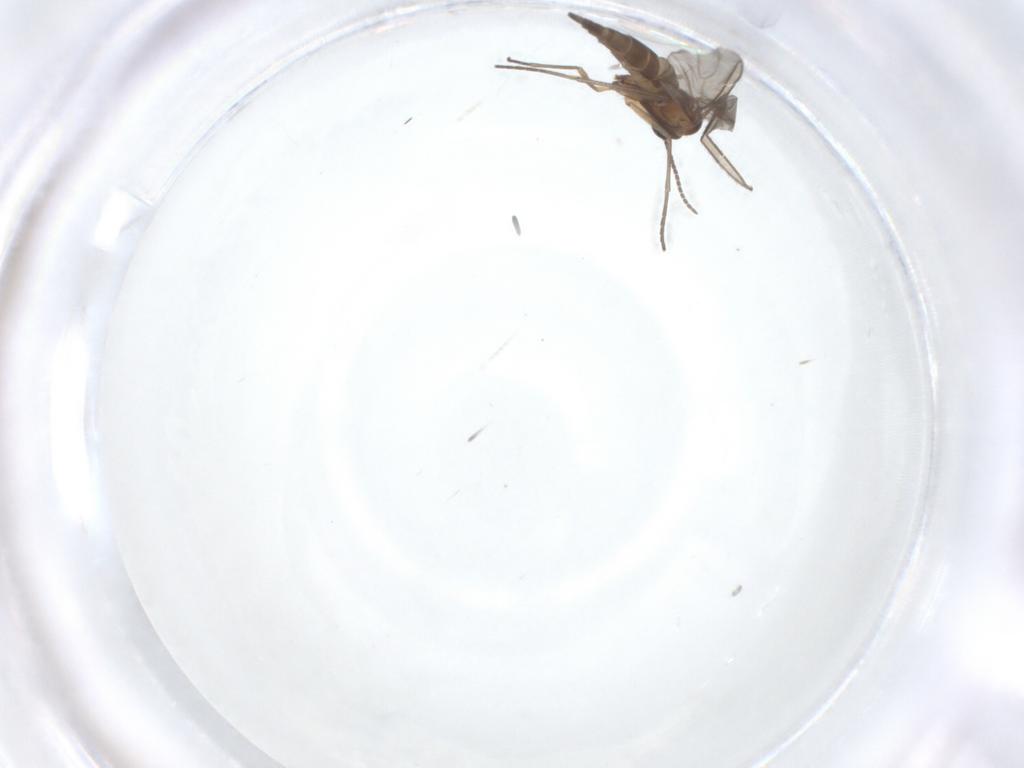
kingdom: Animalia
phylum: Arthropoda
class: Insecta
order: Diptera
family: Sciaridae
